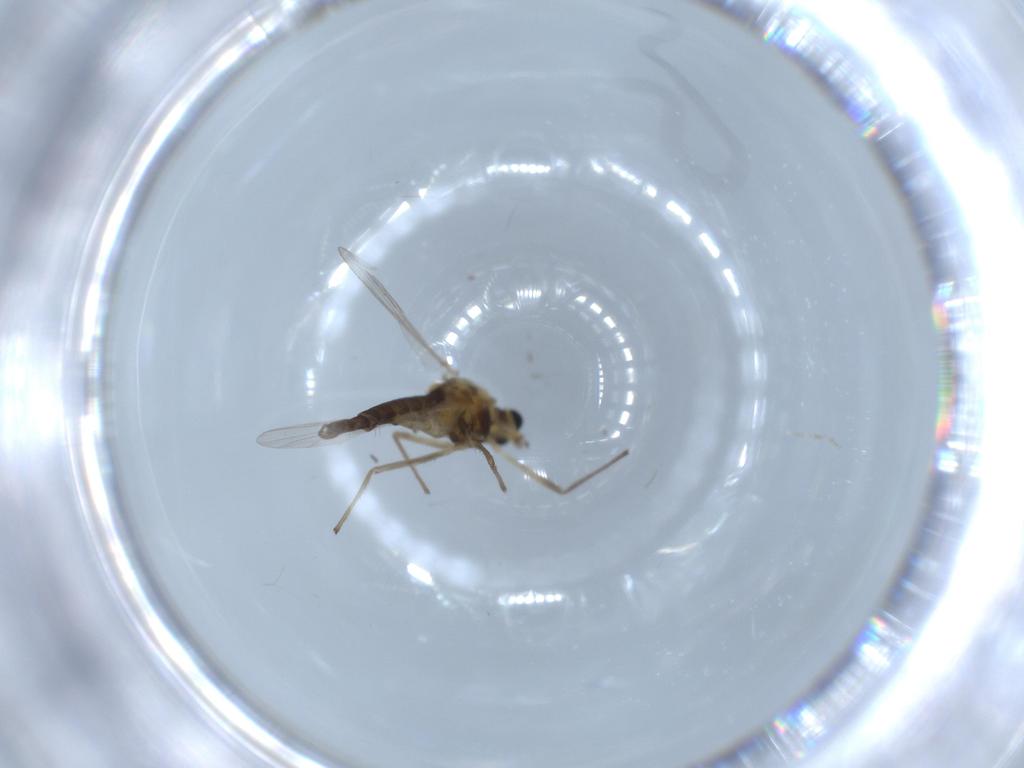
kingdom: Animalia
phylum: Arthropoda
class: Insecta
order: Diptera
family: Chironomidae
